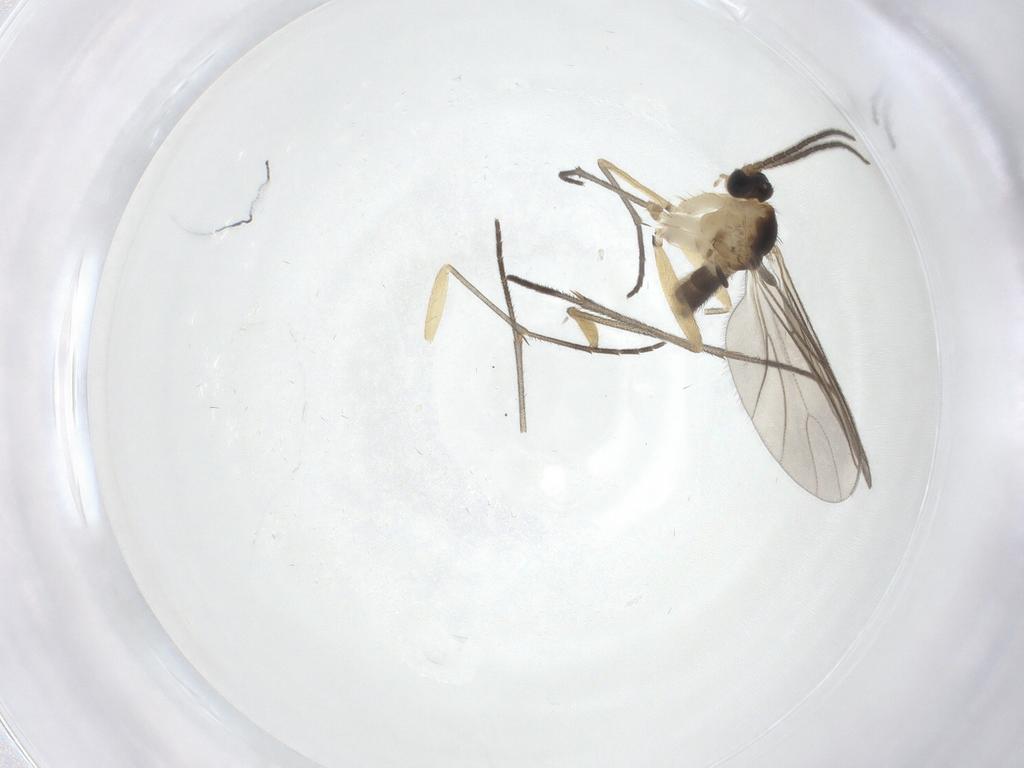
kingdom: Animalia
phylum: Arthropoda
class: Insecta
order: Diptera
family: Sciaridae
